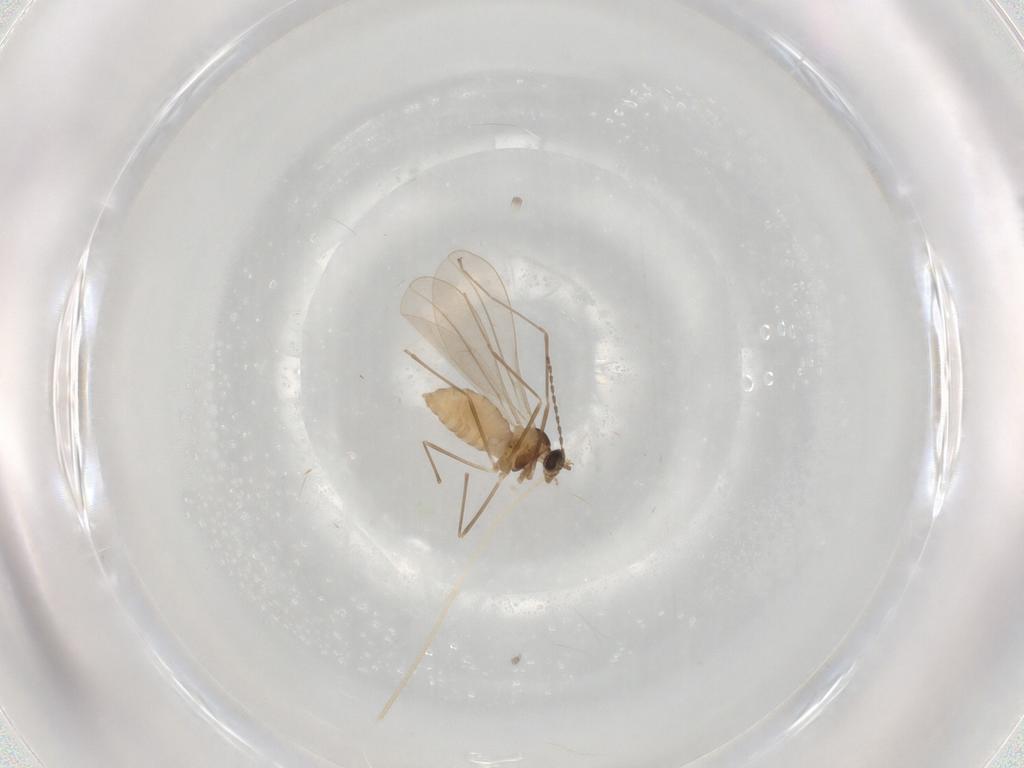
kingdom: Animalia
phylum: Arthropoda
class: Insecta
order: Diptera
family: Cecidomyiidae
